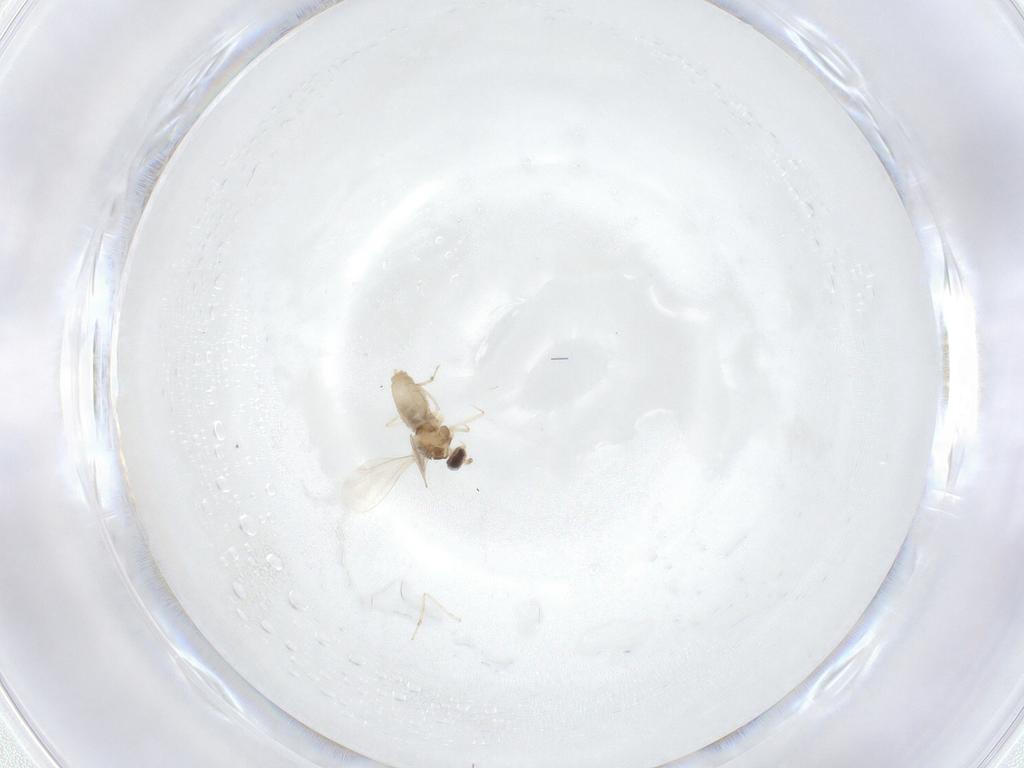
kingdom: Animalia
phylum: Arthropoda
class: Insecta
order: Diptera
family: Cecidomyiidae
